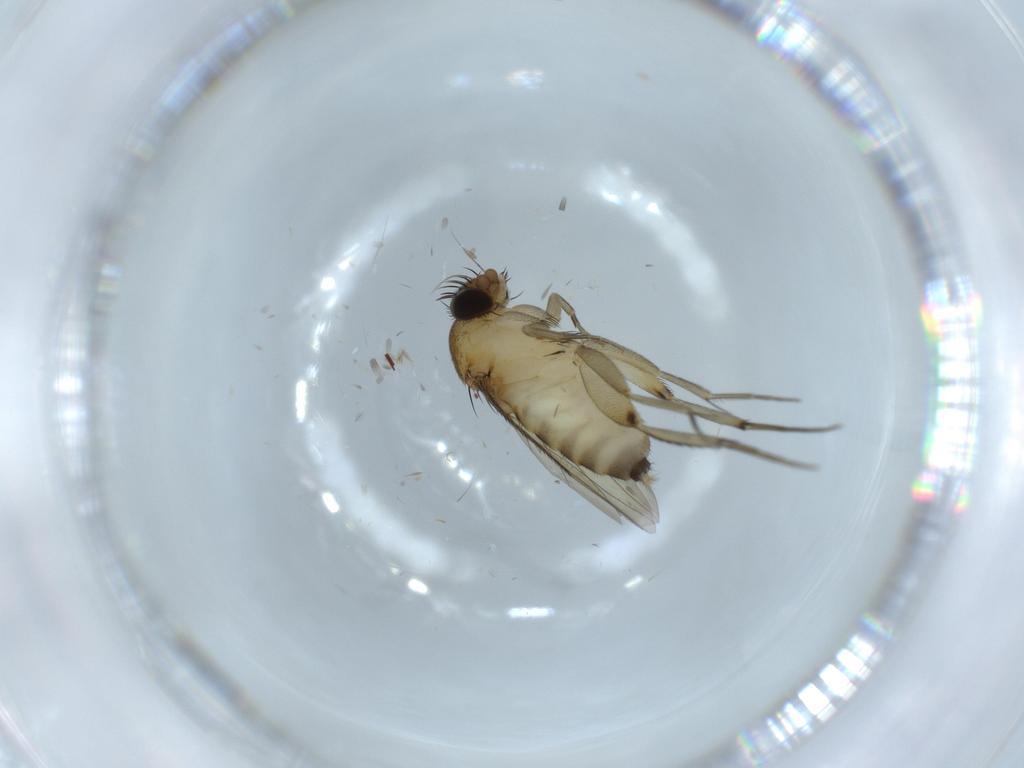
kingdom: Animalia
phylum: Arthropoda
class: Insecta
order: Diptera
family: Phoridae
